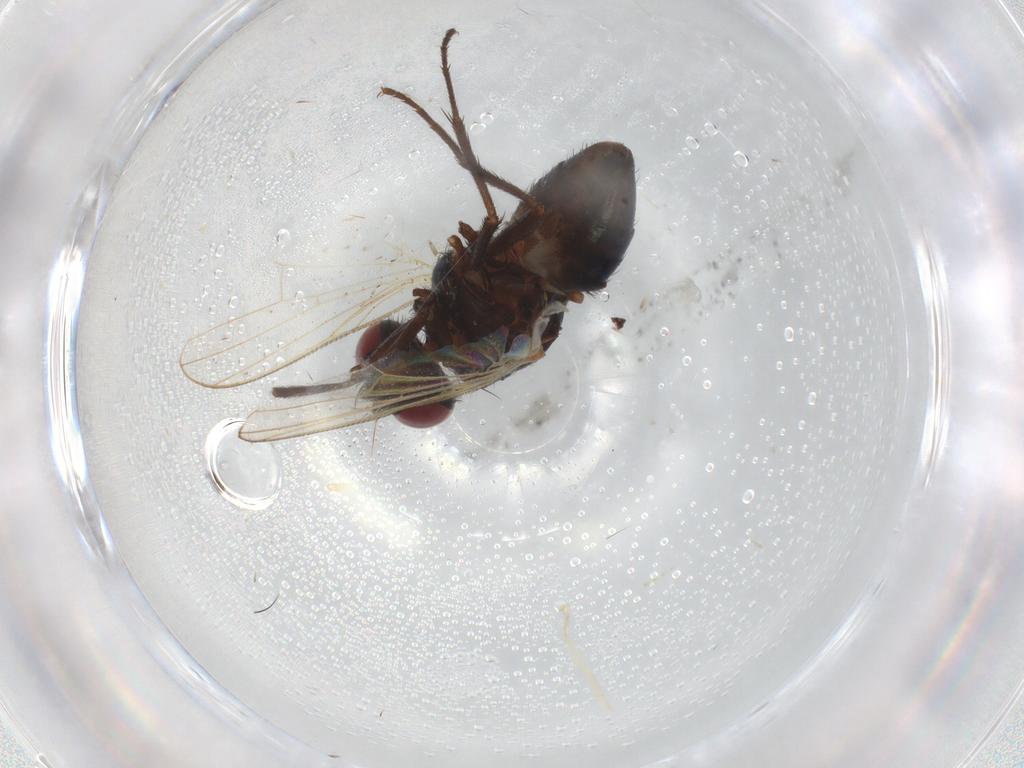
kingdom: Animalia
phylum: Arthropoda
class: Insecta
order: Diptera
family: Anthomyiidae
